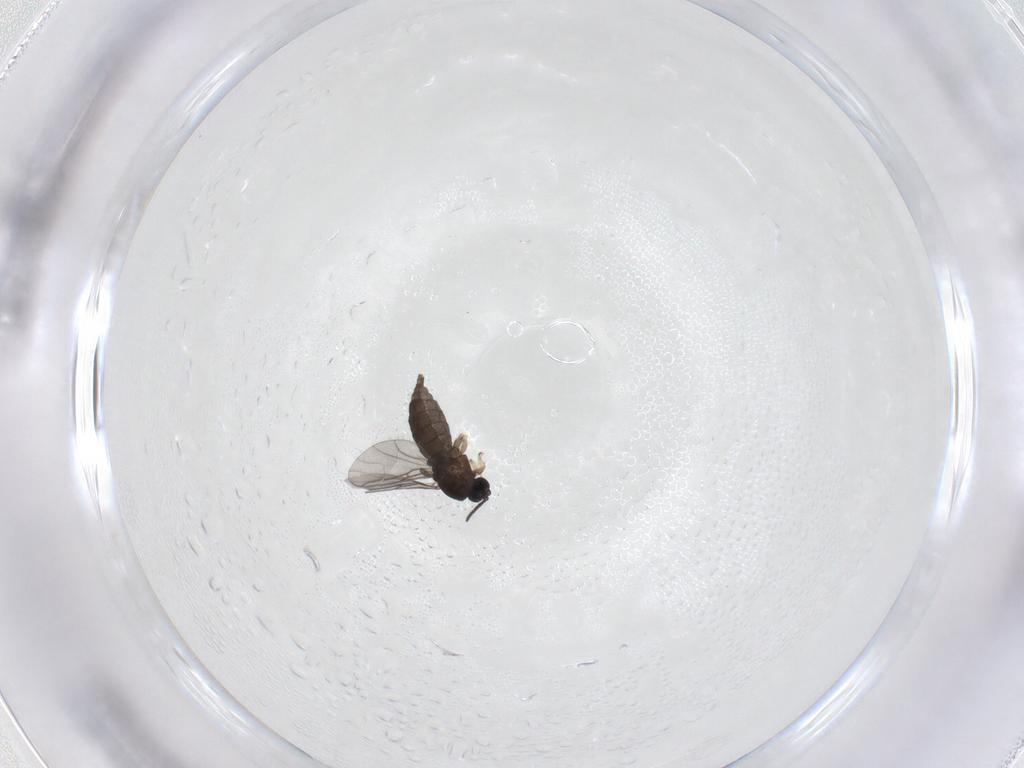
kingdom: Animalia
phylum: Arthropoda
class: Insecta
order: Diptera
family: Sciaridae
